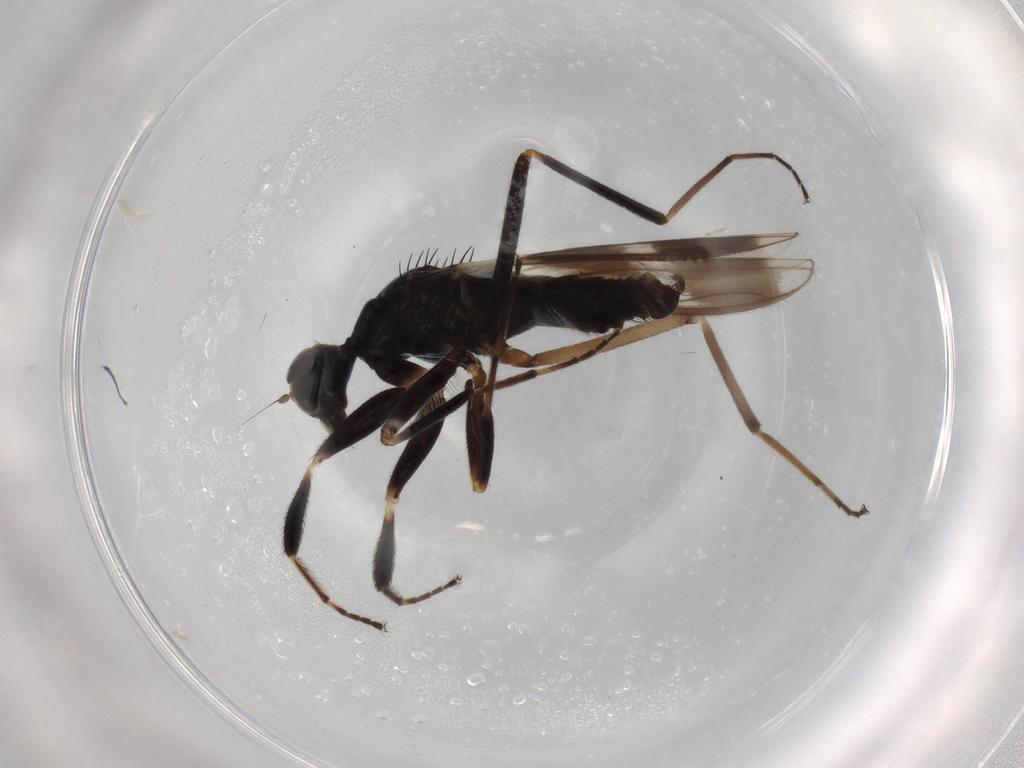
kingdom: Animalia
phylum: Arthropoda
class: Insecta
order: Diptera
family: Hybotidae
